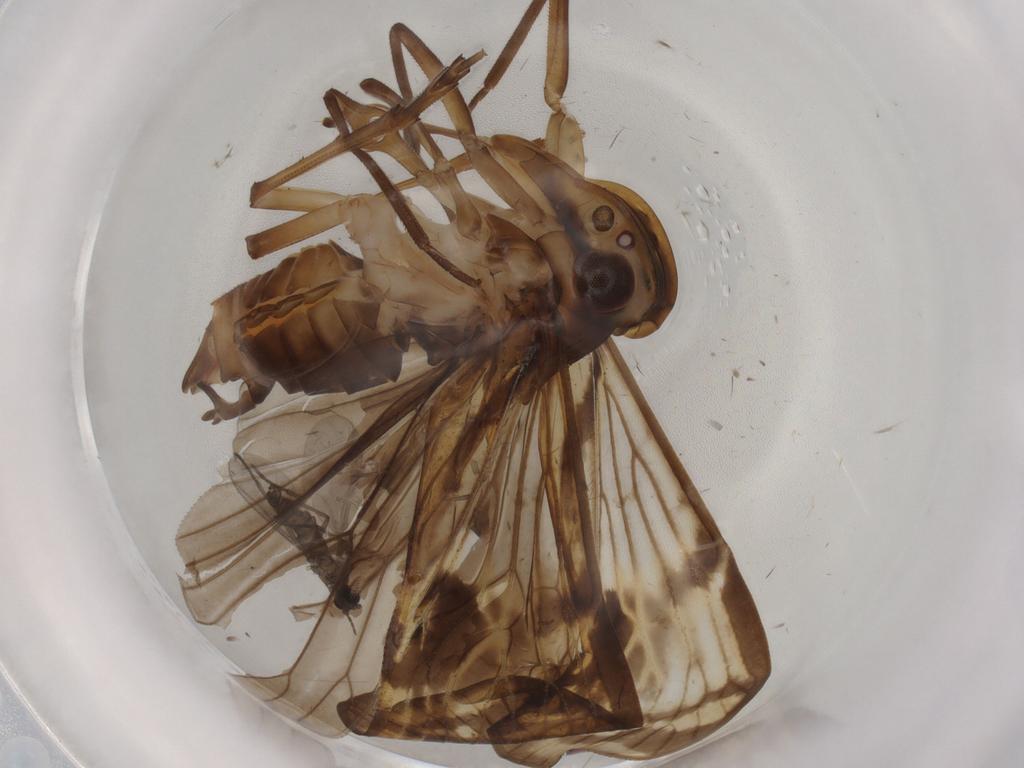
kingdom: Animalia
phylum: Arthropoda
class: Insecta
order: Diptera
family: Sciaridae
